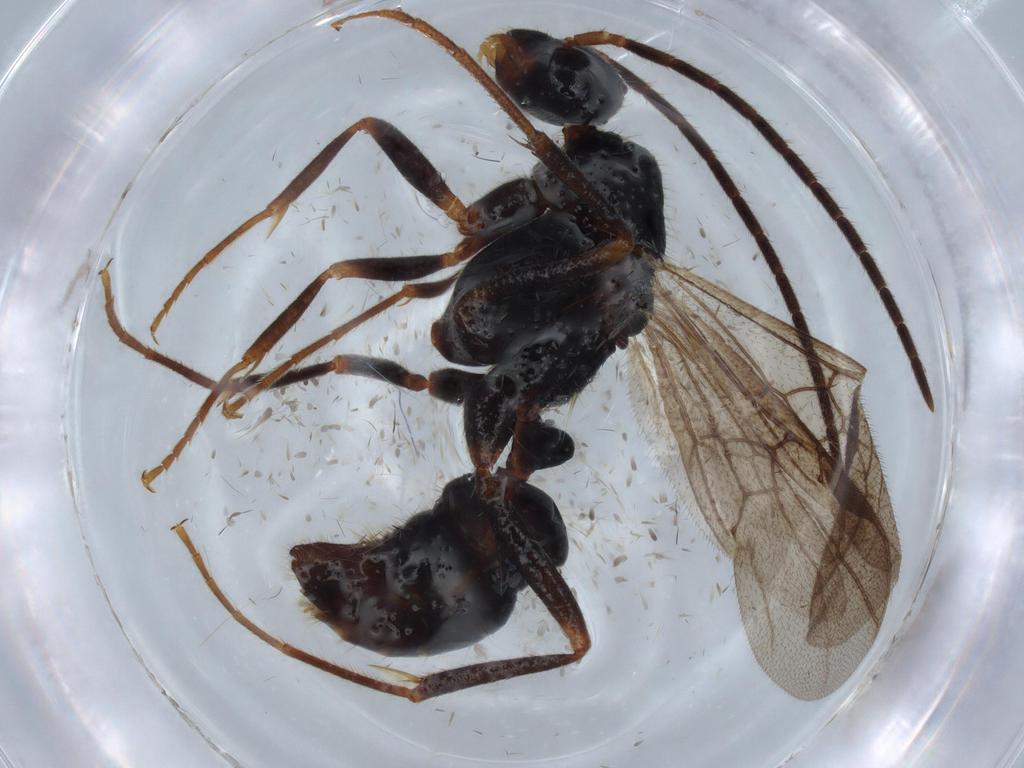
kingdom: Animalia
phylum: Arthropoda
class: Insecta
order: Hymenoptera
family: Formicidae
